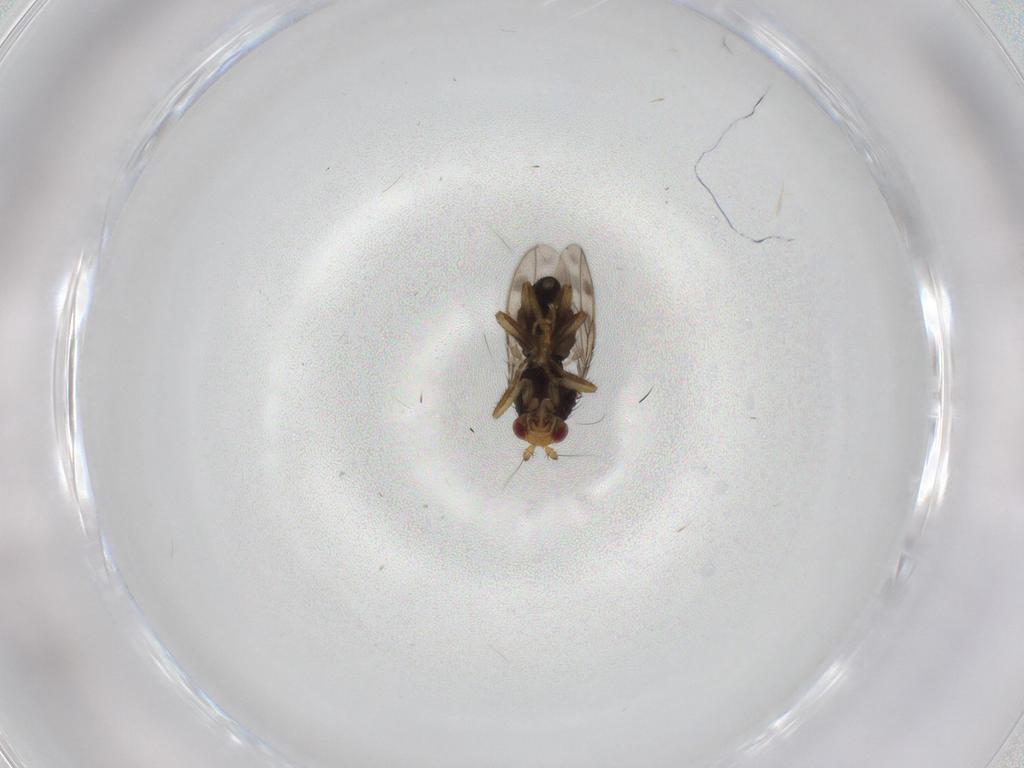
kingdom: Animalia
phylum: Arthropoda
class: Insecta
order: Diptera
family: Sphaeroceridae
